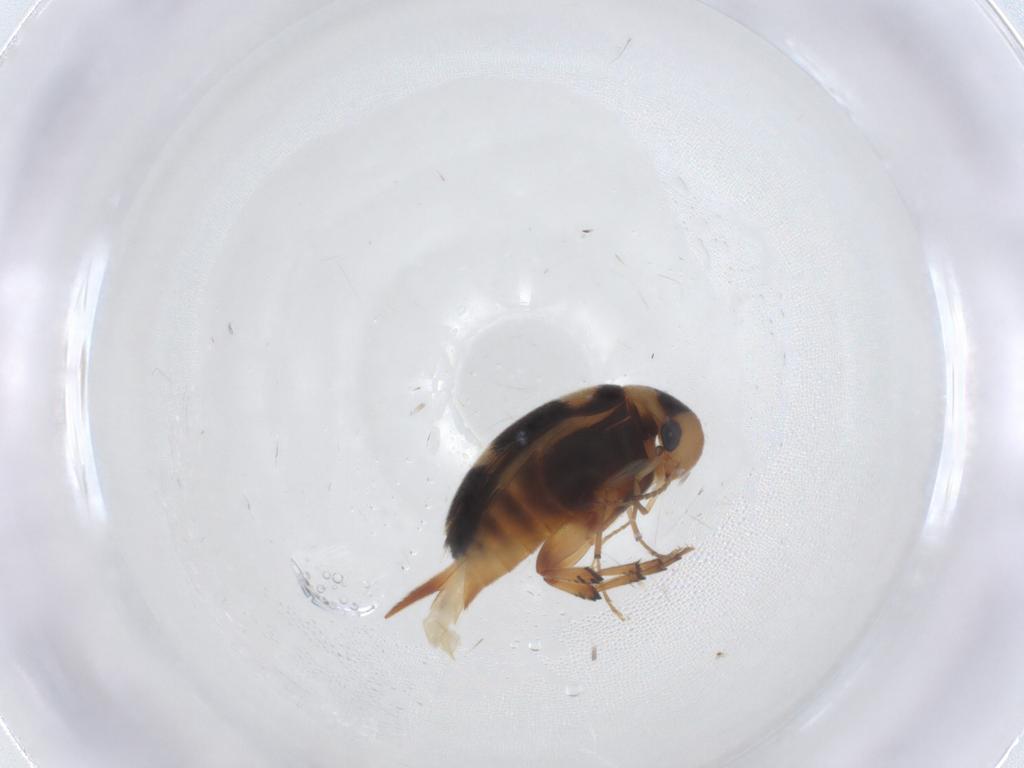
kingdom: Animalia
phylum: Arthropoda
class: Insecta
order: Coleoptera
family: Mordellidae
